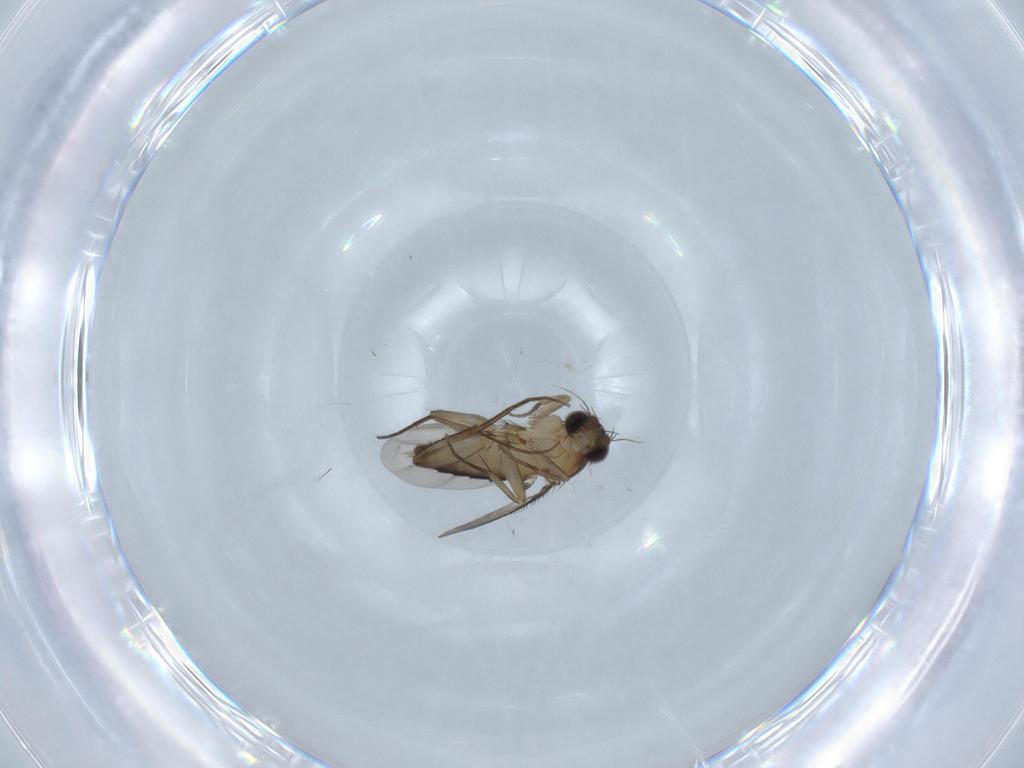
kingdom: Animalia
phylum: Arthropoda
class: Insecta
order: Diptera
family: Phoridae
